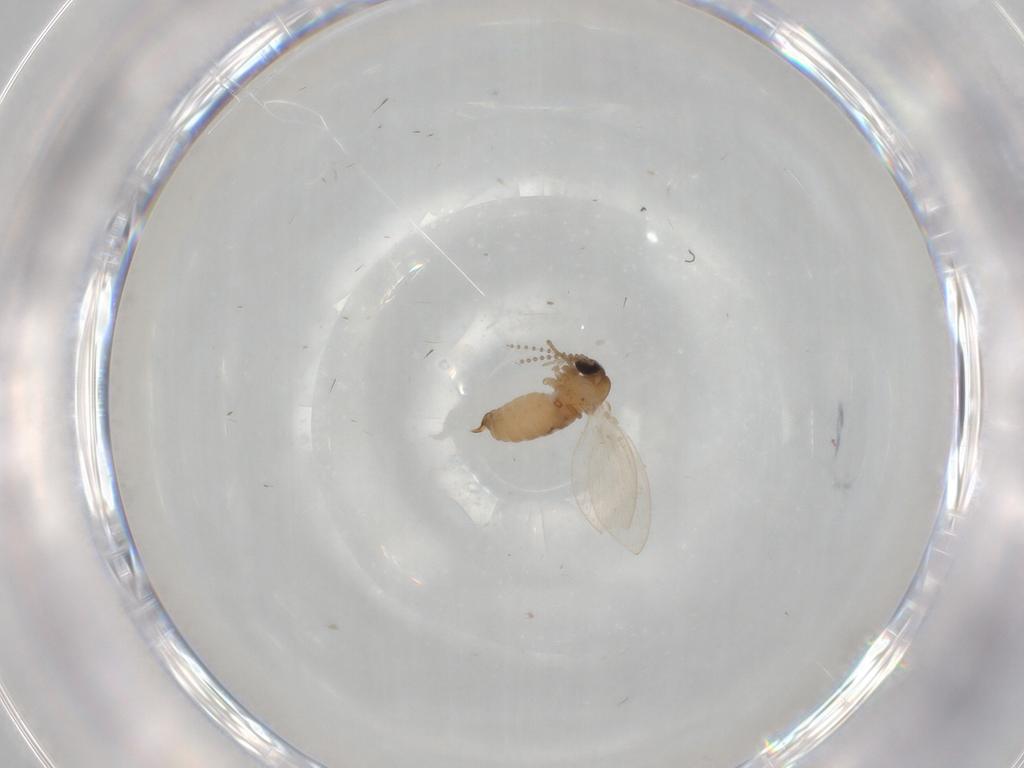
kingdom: Animalia
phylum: Arthropoda
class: Insecta
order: Diptera
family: Psychodidae
